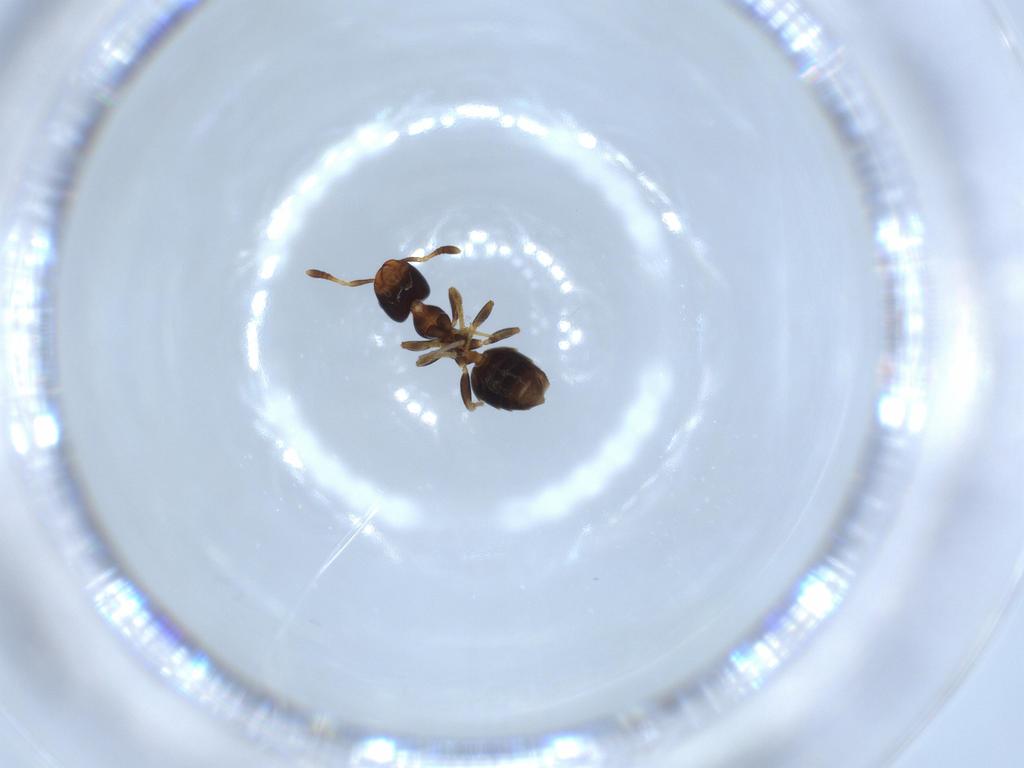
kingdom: Animalia
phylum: Arthropoda
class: Insecta
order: Hymenoptera
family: Formicidae
